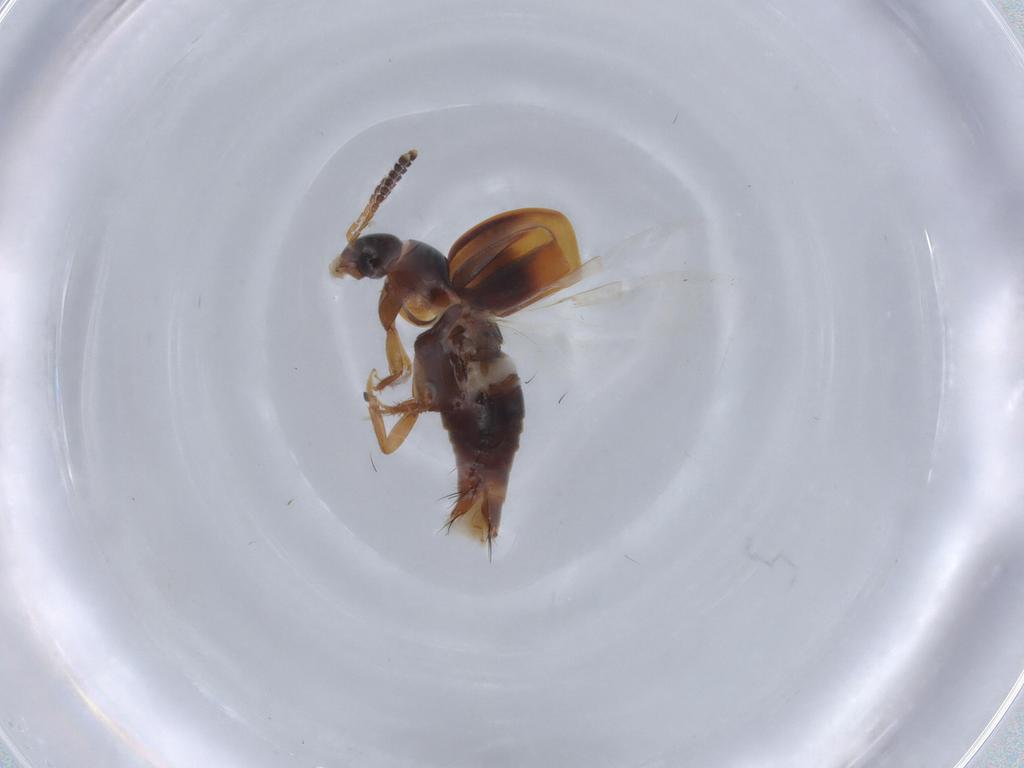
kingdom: Animalia
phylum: Arthropoda
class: Insecta
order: Coleoptera
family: Staphylinidae
